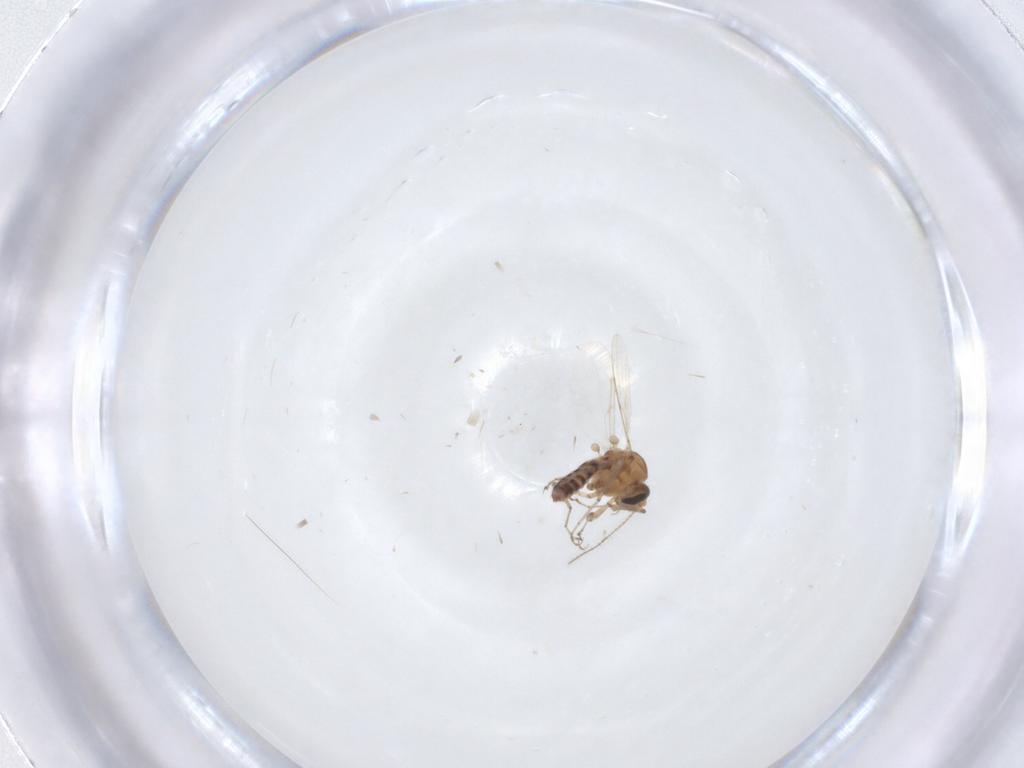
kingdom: Animalia
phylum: Arthropoda
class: Insecta
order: Diptera
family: Ceratopogonidae
